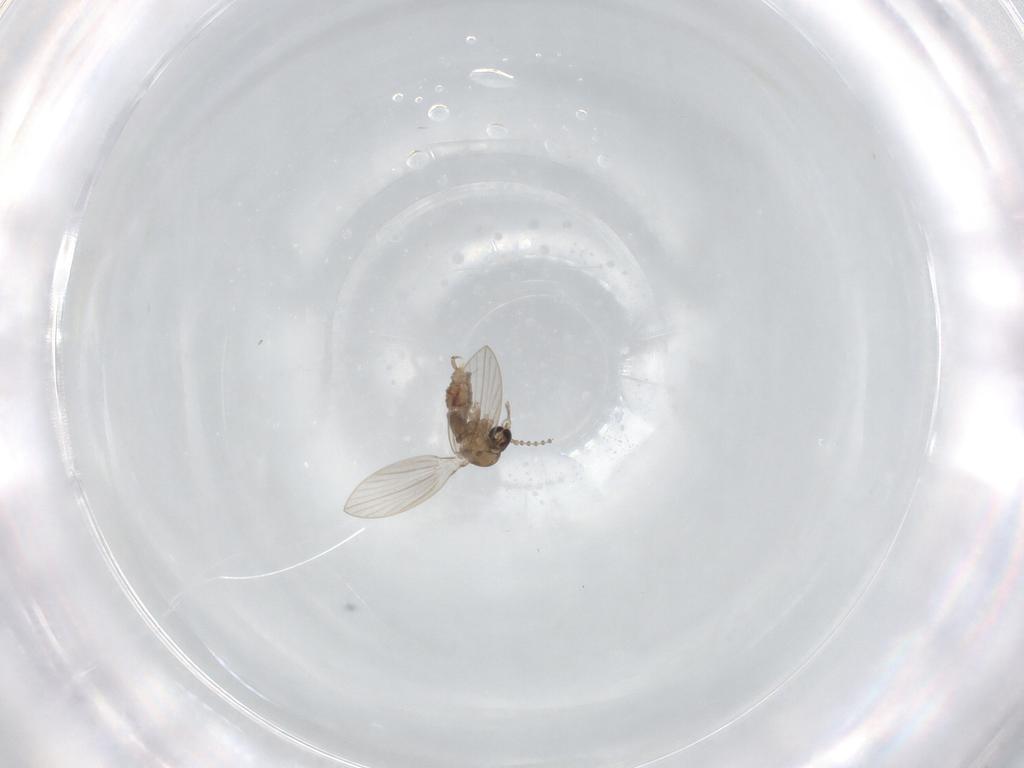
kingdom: Animalia
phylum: Arthropoda
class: Insecta
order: Diptera
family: Psychodidae
